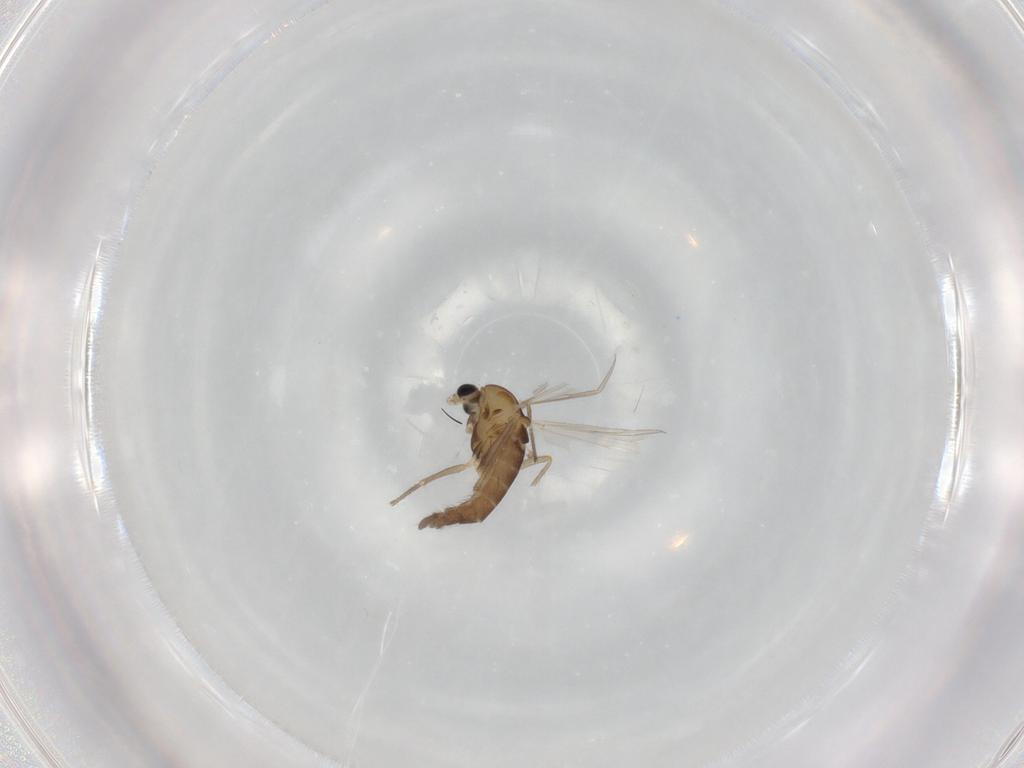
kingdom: Animalia
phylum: Arthropoda
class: Insecta
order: Diptera
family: Chironomidae
